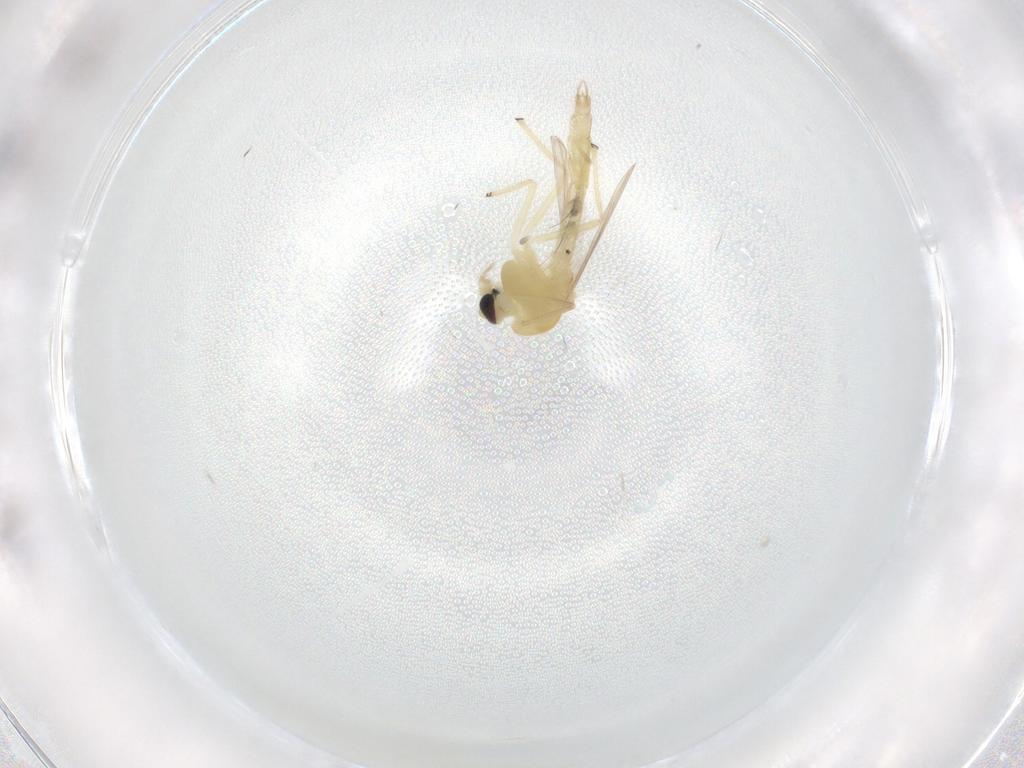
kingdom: Animalia
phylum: Arthropoda
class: Insecta
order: Diptera
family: Chironomidae
